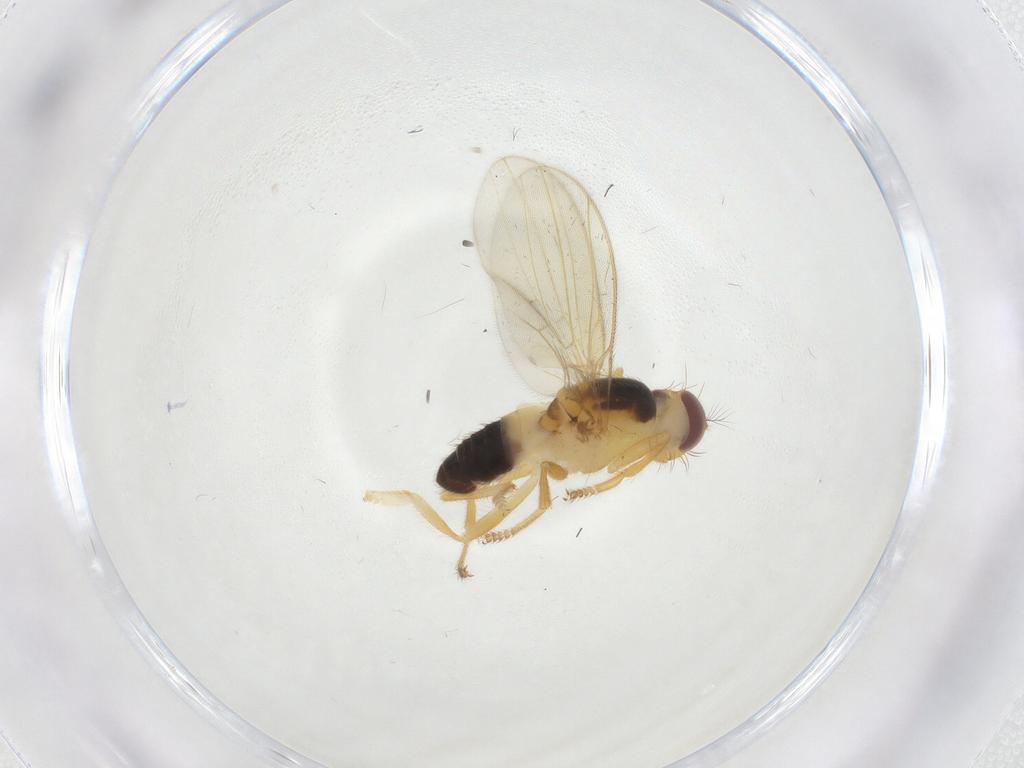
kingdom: Animalia
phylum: Arthropoda
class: Insecta
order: Diptera
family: Periscelididae
